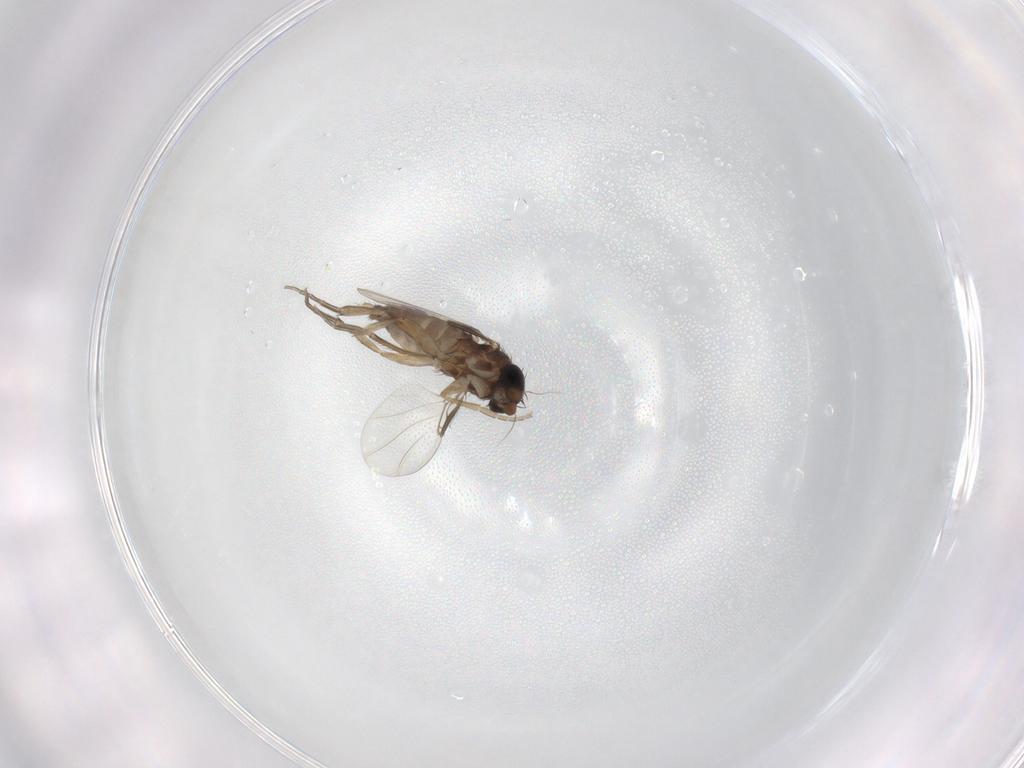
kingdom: Animalia
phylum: Arthropoda
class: Insecta
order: Diptera
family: Phoridae
